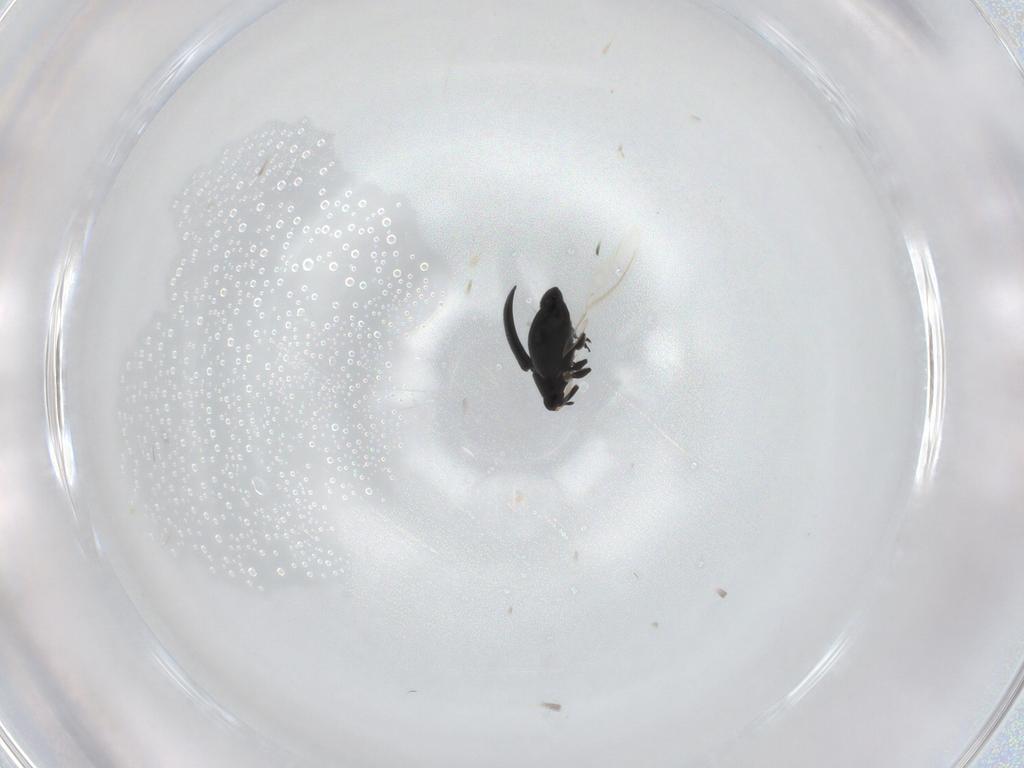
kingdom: Animalia
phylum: Arthropoda
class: Insecta
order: Coleoptera
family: Curculionidae
